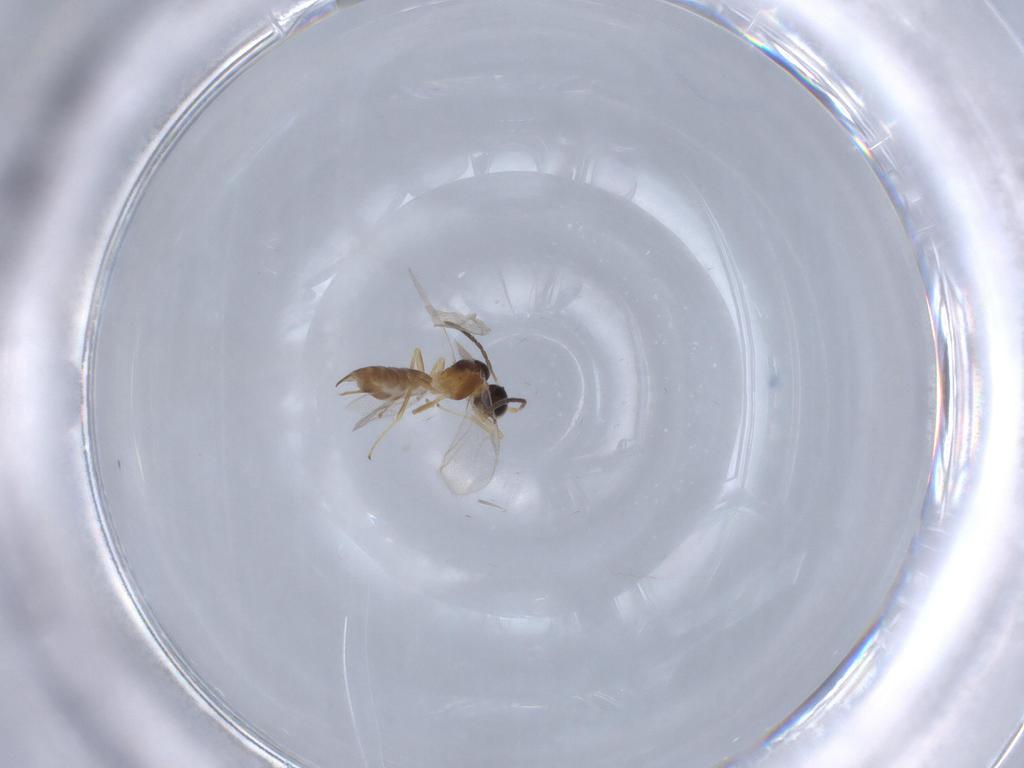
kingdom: Animalia
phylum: Arthropoda
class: Insecta
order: Hymenoptera
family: Braconidae
